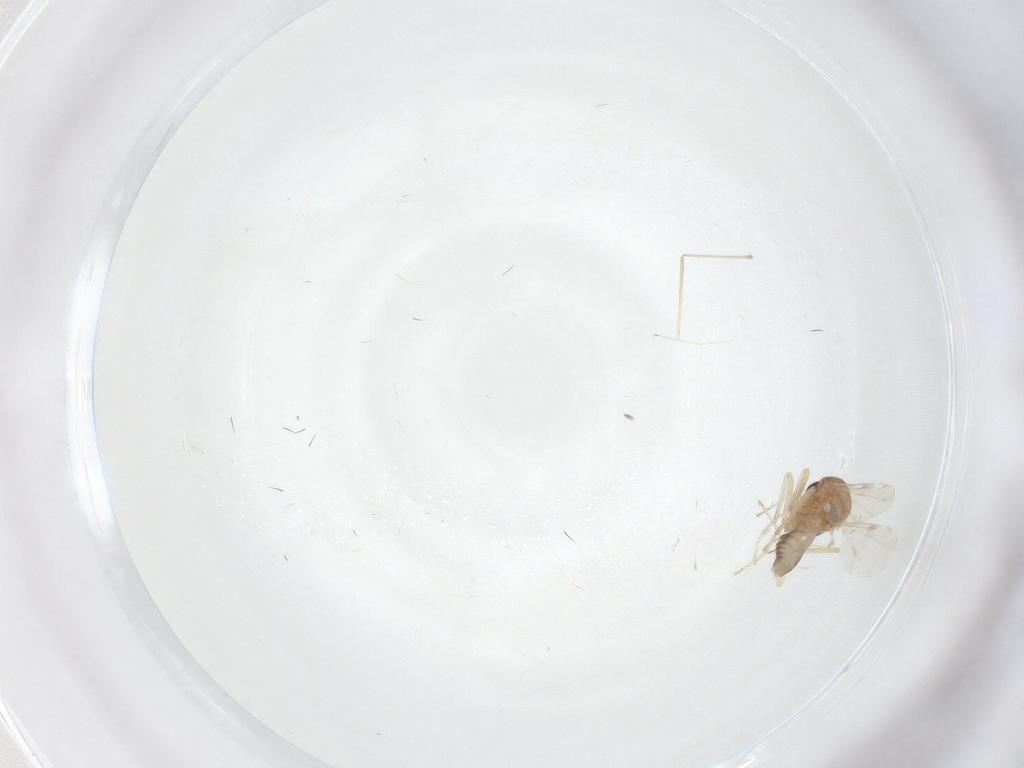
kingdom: Animalia
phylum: Arthropoda
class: Insecta
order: Diptera
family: Ceratopogonidae
